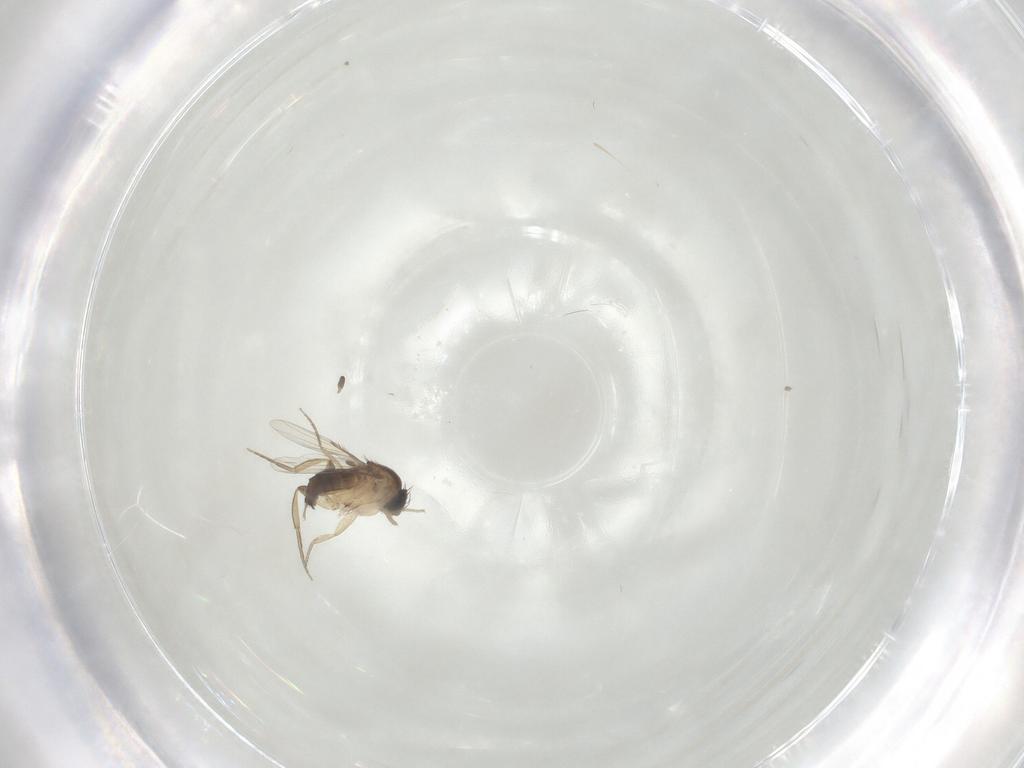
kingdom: Animalia
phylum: Arthropoda
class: Insecta
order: Diptera
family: Phoridae
